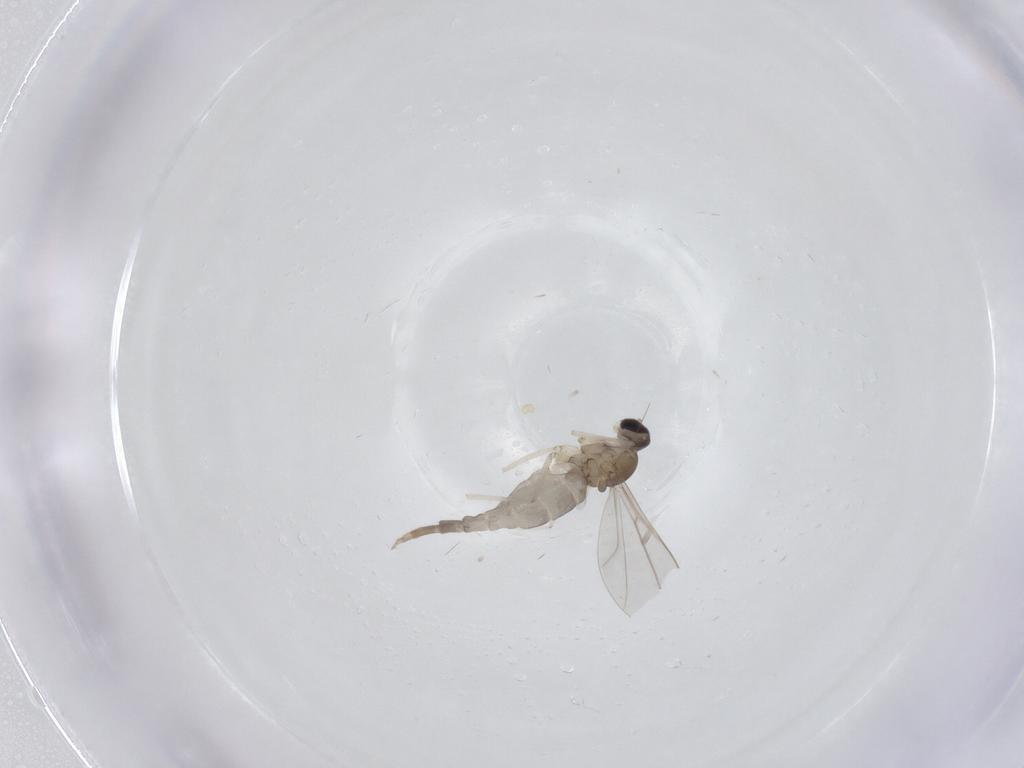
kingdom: Animalia
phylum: Arthropoda
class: Insecta
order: Diptera
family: Cecidomyiidae
